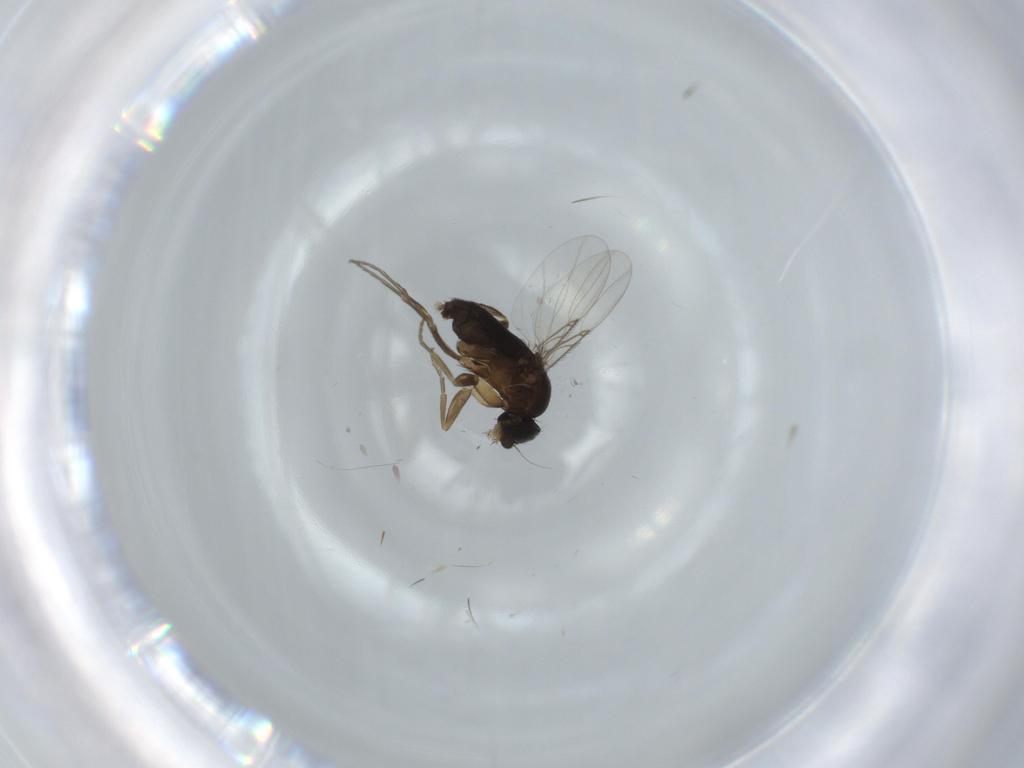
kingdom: Animalia
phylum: Arthropoda
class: Insecta
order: Diptera
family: Phoridae
